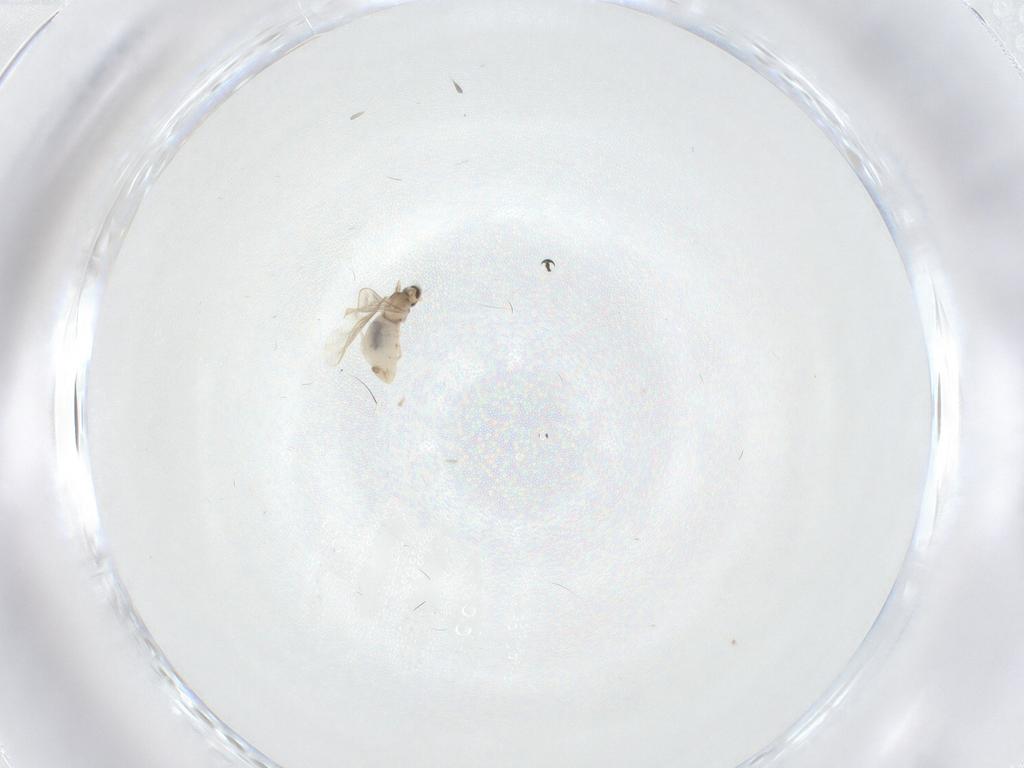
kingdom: Animalia
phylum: Arthropoda
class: Insecta
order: Diptera
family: Cecidomyiidae
